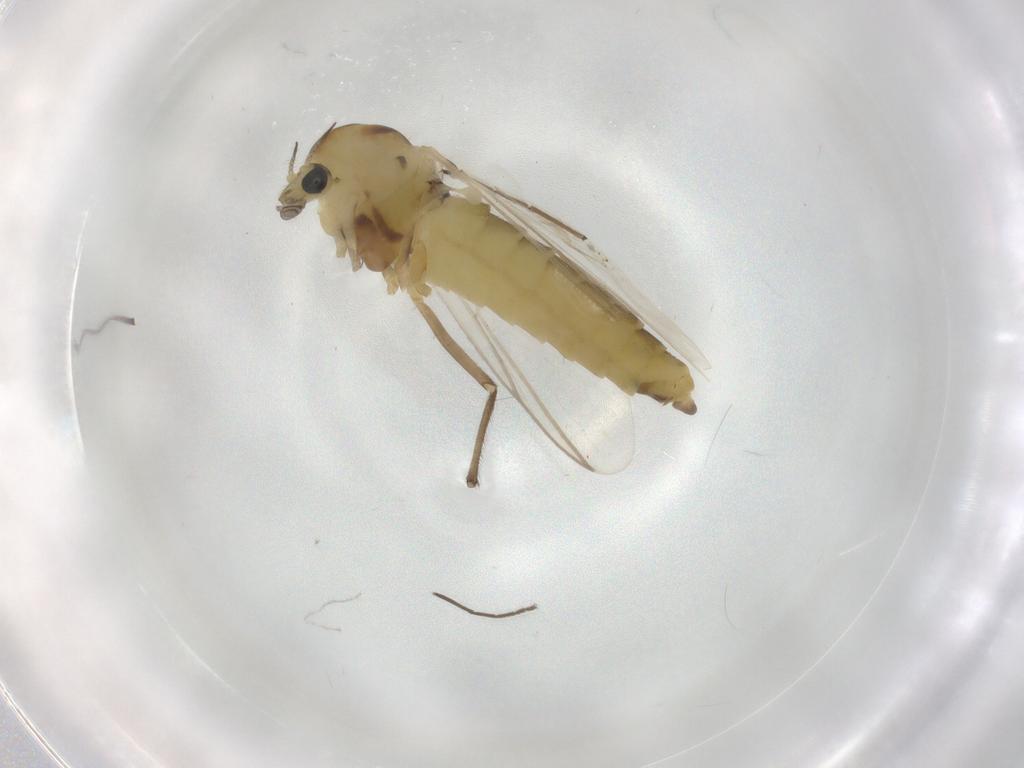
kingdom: Animalia
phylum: Arthropoda
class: Insecta
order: Diptera
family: Chironomidae
